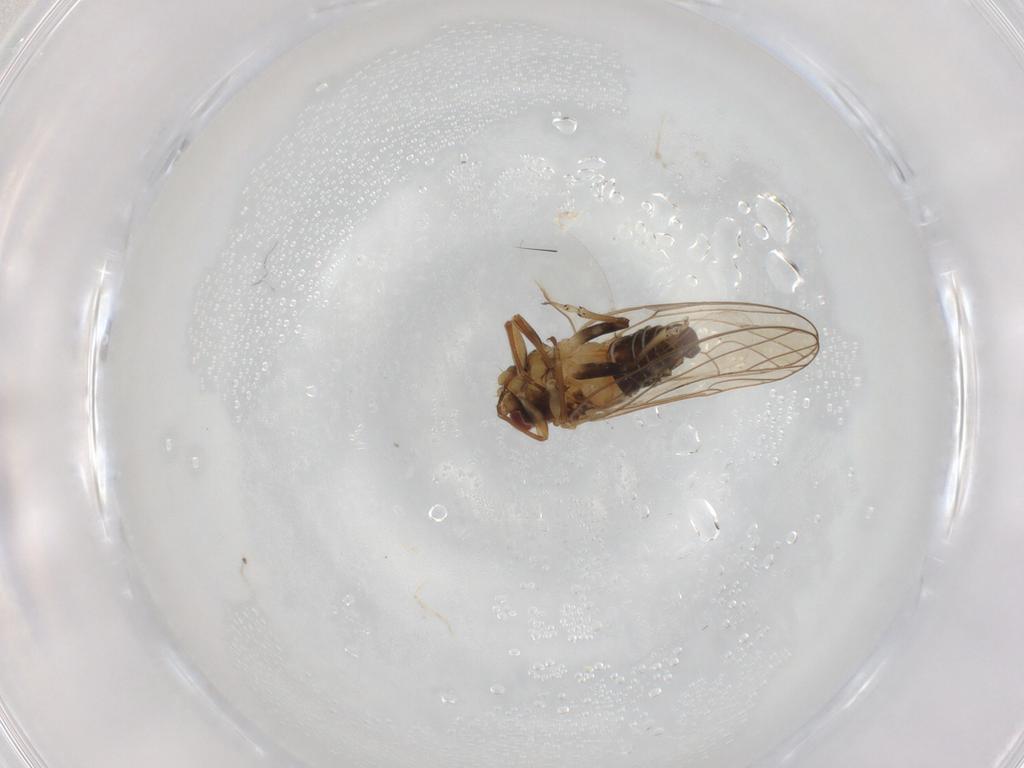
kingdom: Animalia
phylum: Arthropoda
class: Insecta
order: Hemiptera
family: Psyllidae
